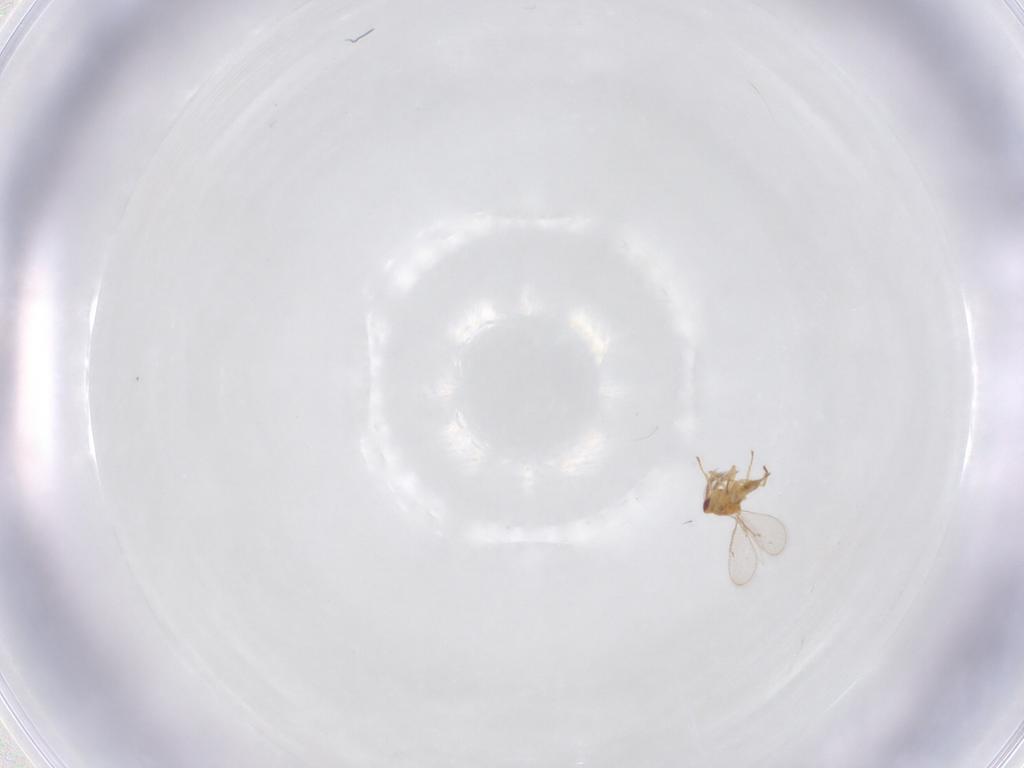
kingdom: Animalia
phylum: Arthropoda
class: Insecta
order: Hymenoptera
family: Eulophidae
